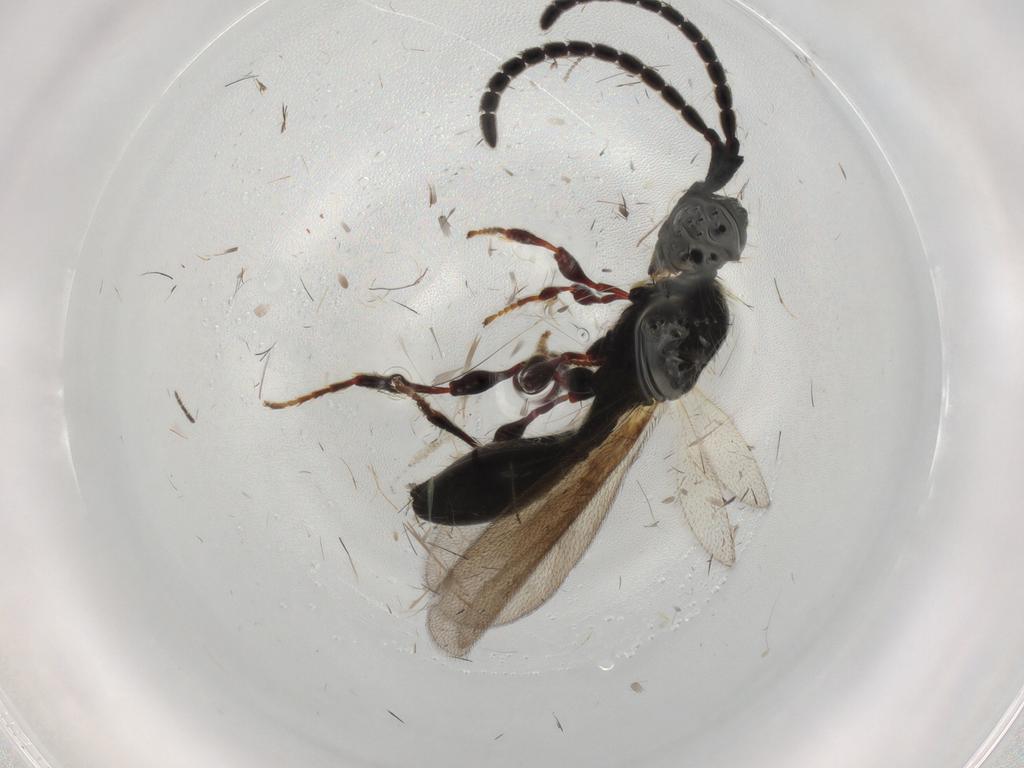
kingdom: Animalia
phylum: Arthropoda
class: Insecta
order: Hymenoptera
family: Diapriidae
